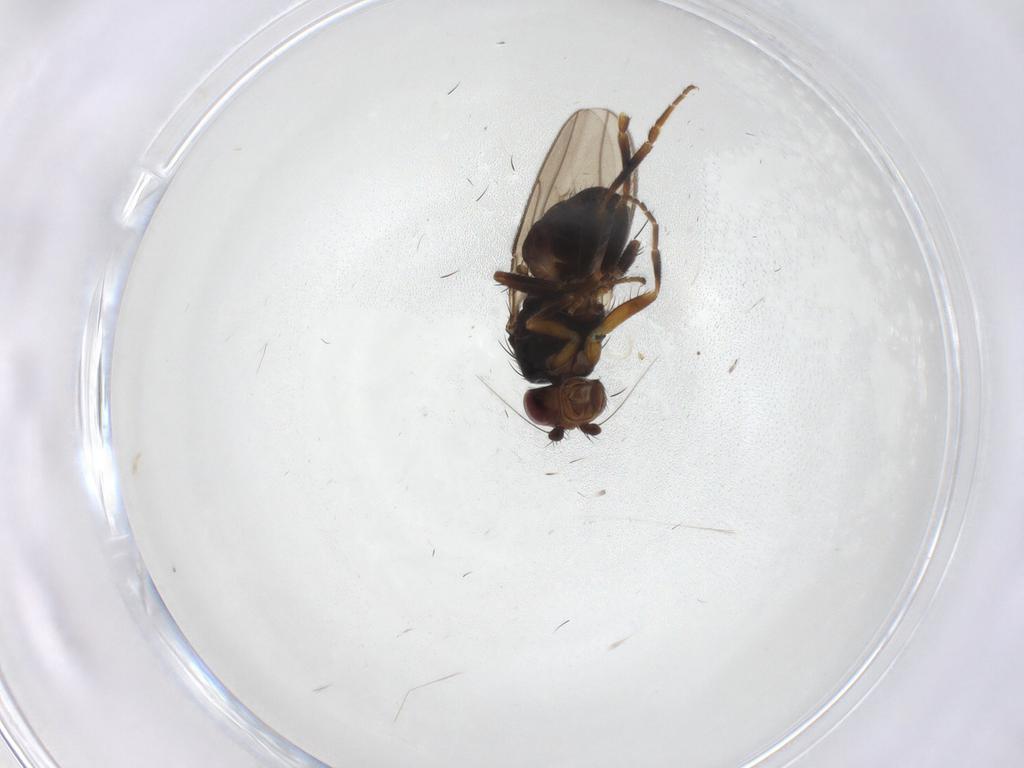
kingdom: Animalia
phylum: Arthropoda
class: Insecta
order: Diptera
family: Sphaeroceridae
